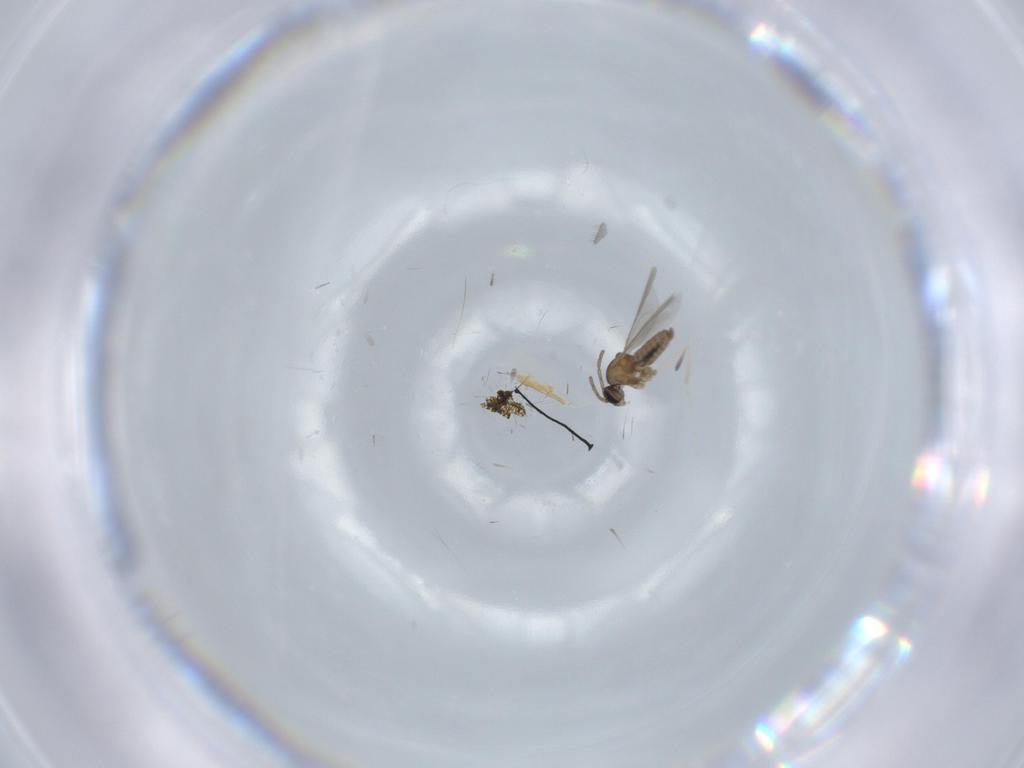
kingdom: Animalia
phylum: Arthropoda
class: Insecta
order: Diptera
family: Cecidomyiidae
